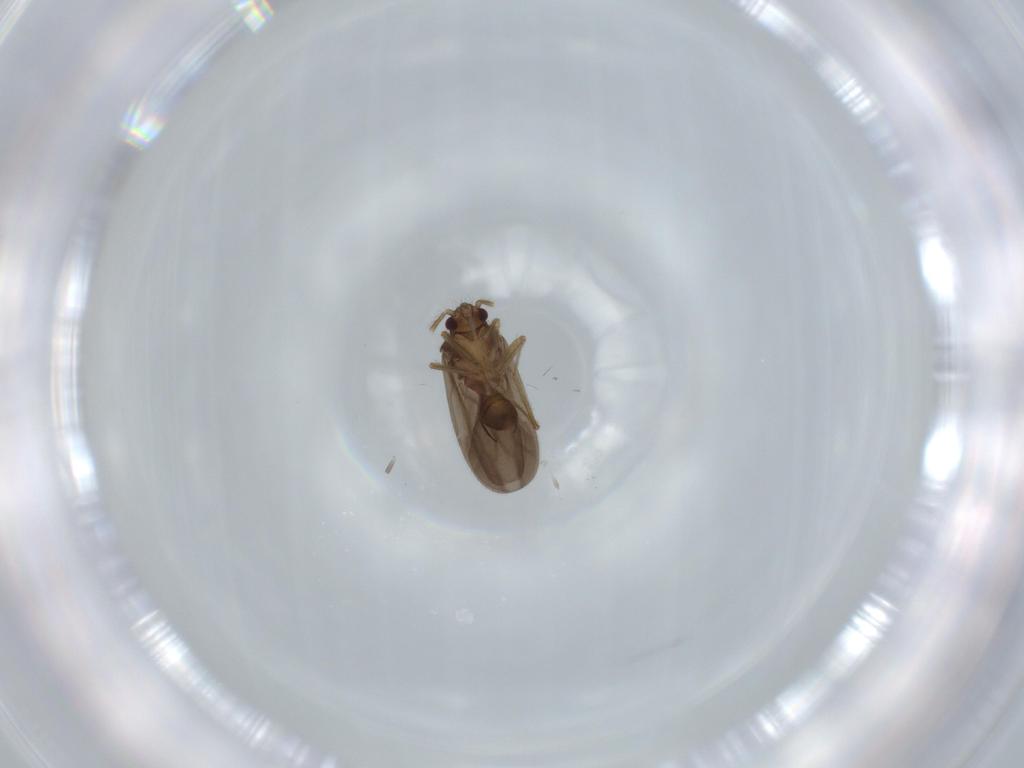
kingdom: Animalia
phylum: Arthropoda
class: Insecta
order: Hemiptera
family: Ceratocombidae
